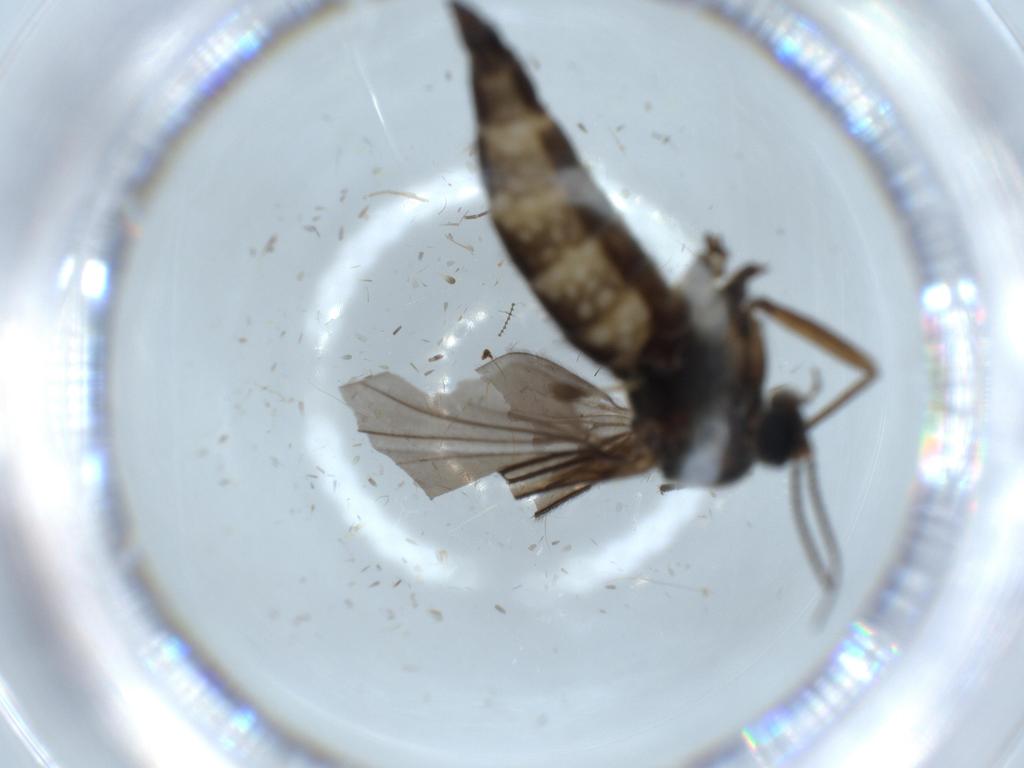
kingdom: Animalia
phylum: Arthropoda
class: Insecta
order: Diptera
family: Sciaridae
